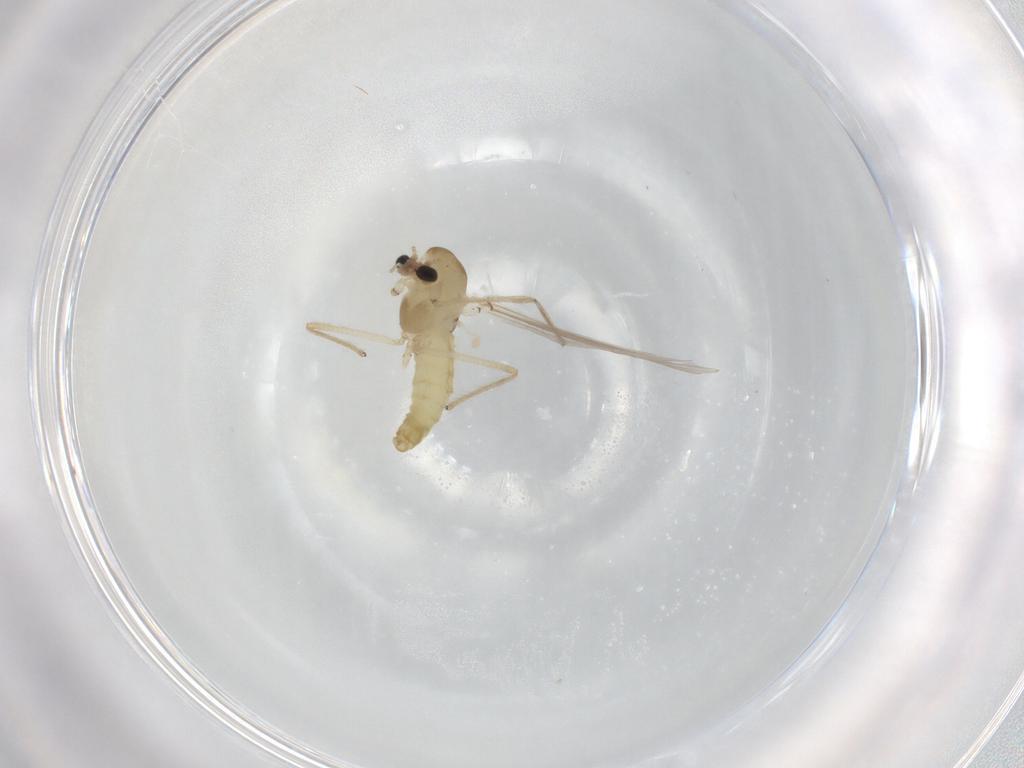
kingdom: Animalia
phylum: Arthropoda
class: Insecta
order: Diptera
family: Chironomidae
